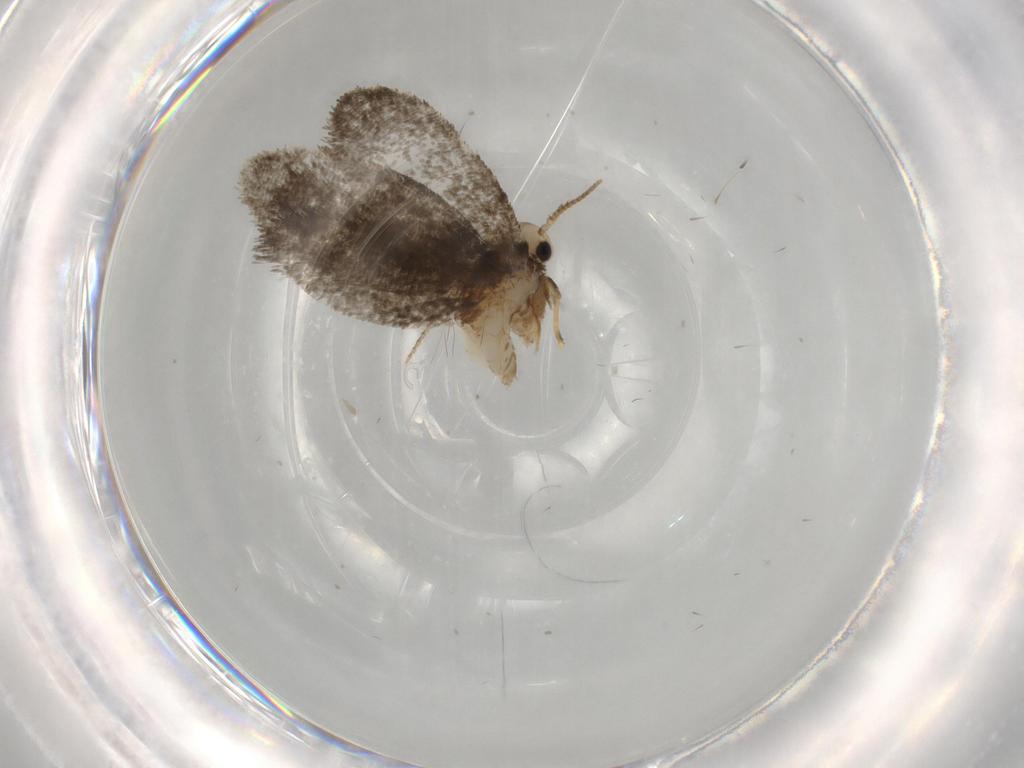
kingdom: Animalia
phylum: Arthropoda
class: Insecta
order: Lepidoptera
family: Psychidae
